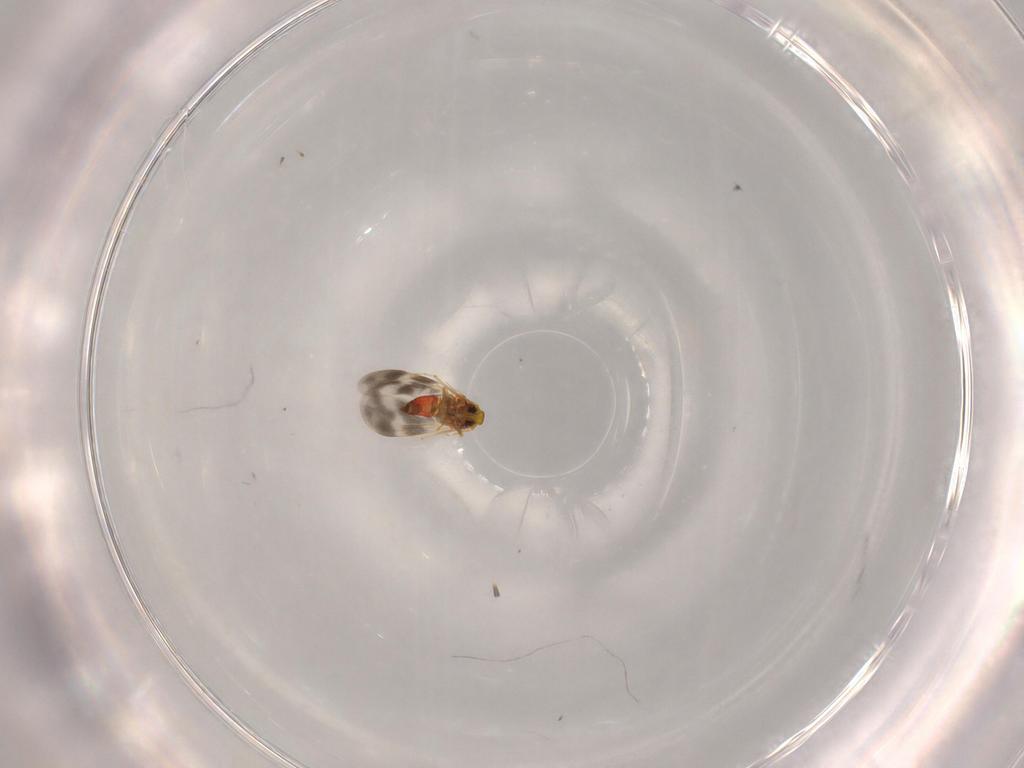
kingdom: Animalia
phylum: Arthropoda
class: Insecta
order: Hemiptera
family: Aleyrodidae
